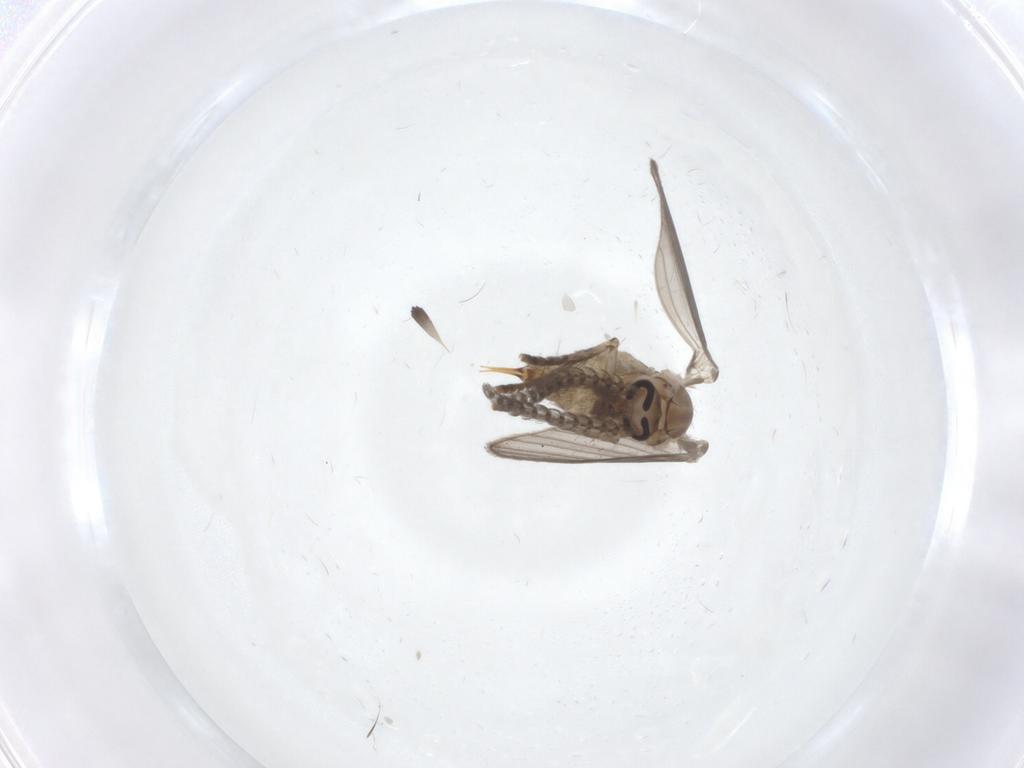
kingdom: Animalia
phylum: Arthropoda
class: Insecta
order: Diptera
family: Psychodidae
